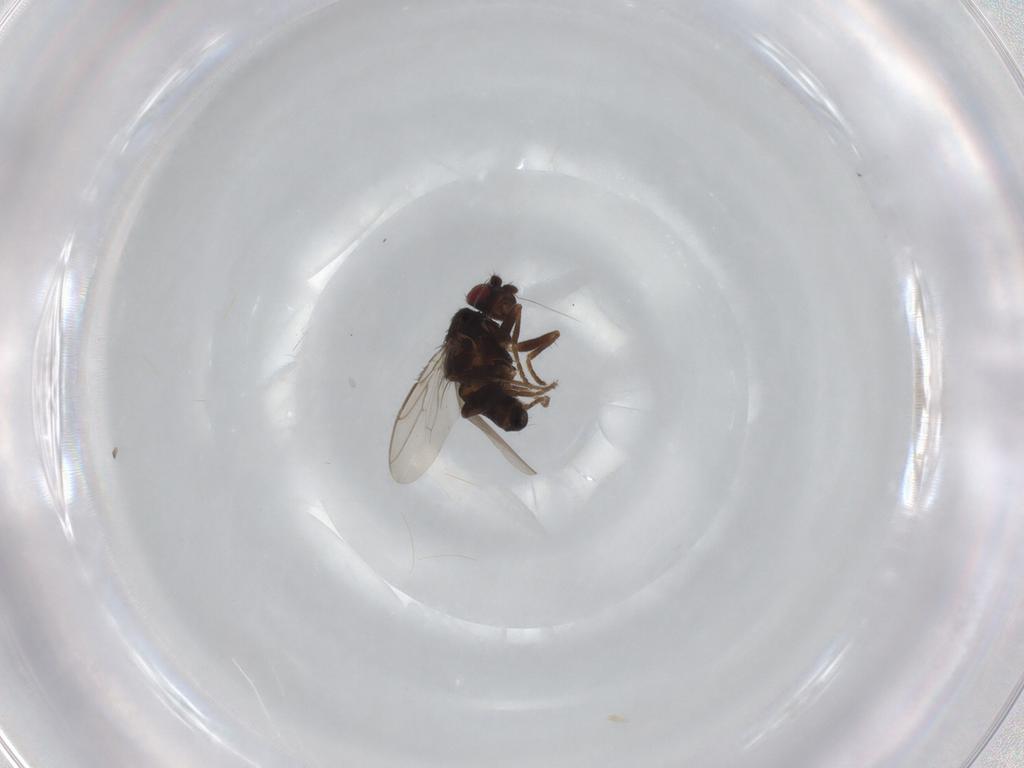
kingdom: Animalia
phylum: Arthropoda
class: Insecta
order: Diptera
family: Sphaeroceridae
